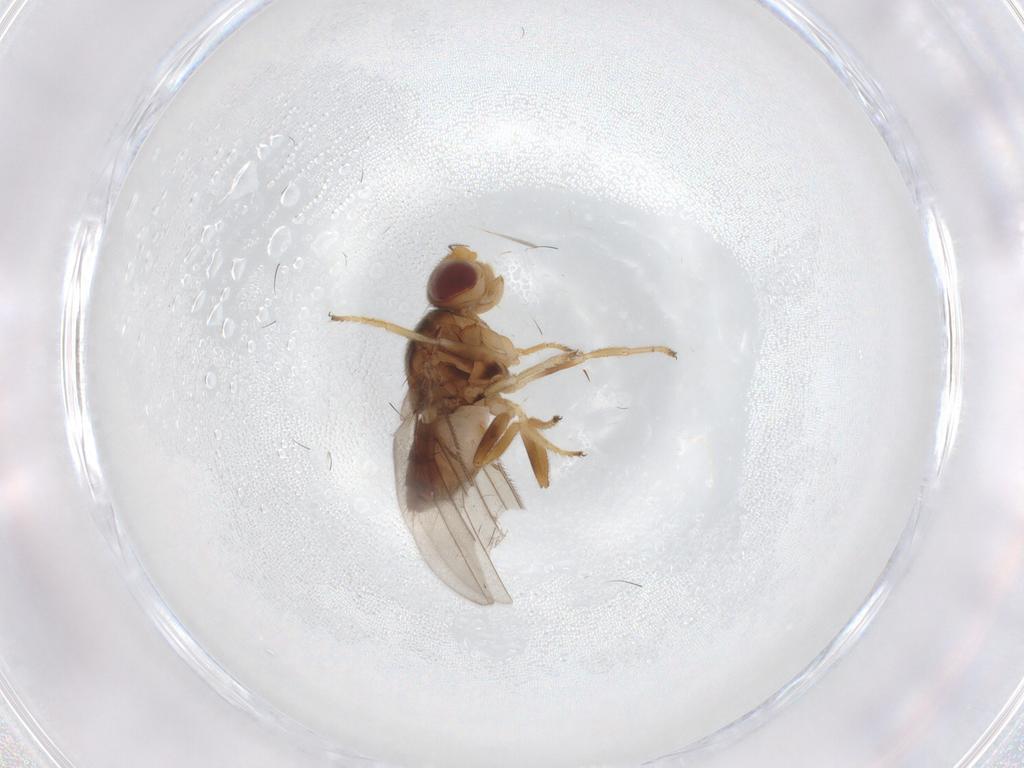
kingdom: Animalia
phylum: Arthropoda
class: Insecta
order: Diptera
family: Chloropidae
